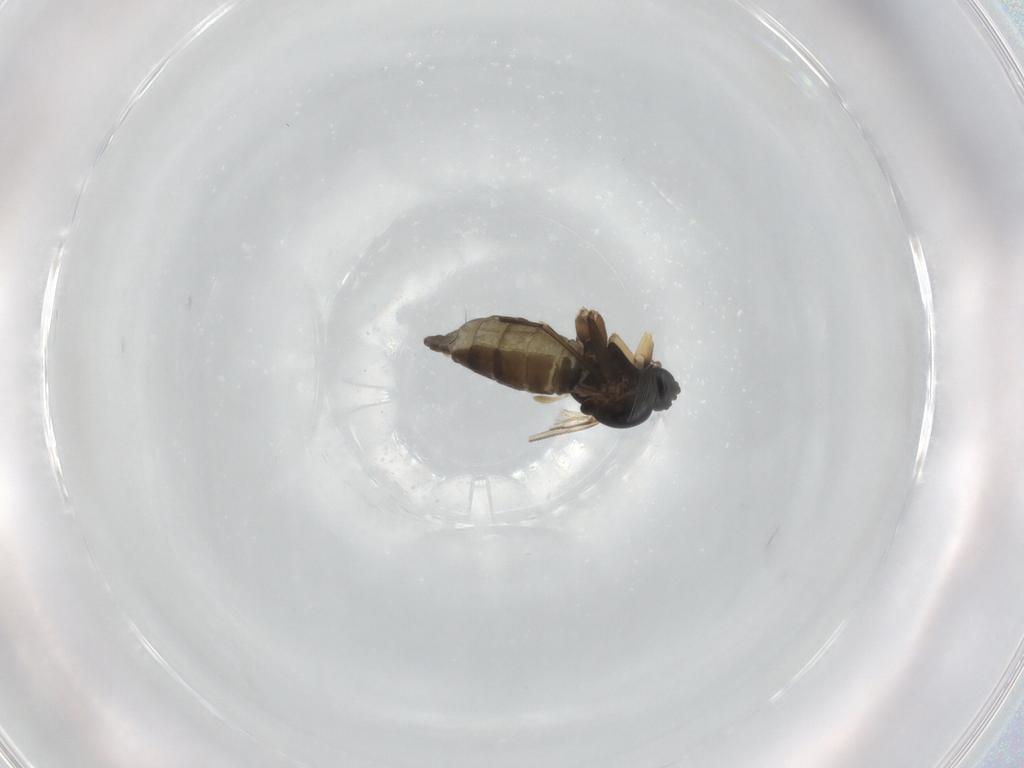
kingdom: Animalia
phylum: Arthropoda
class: Insecta
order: Diptera
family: Sciaridae
